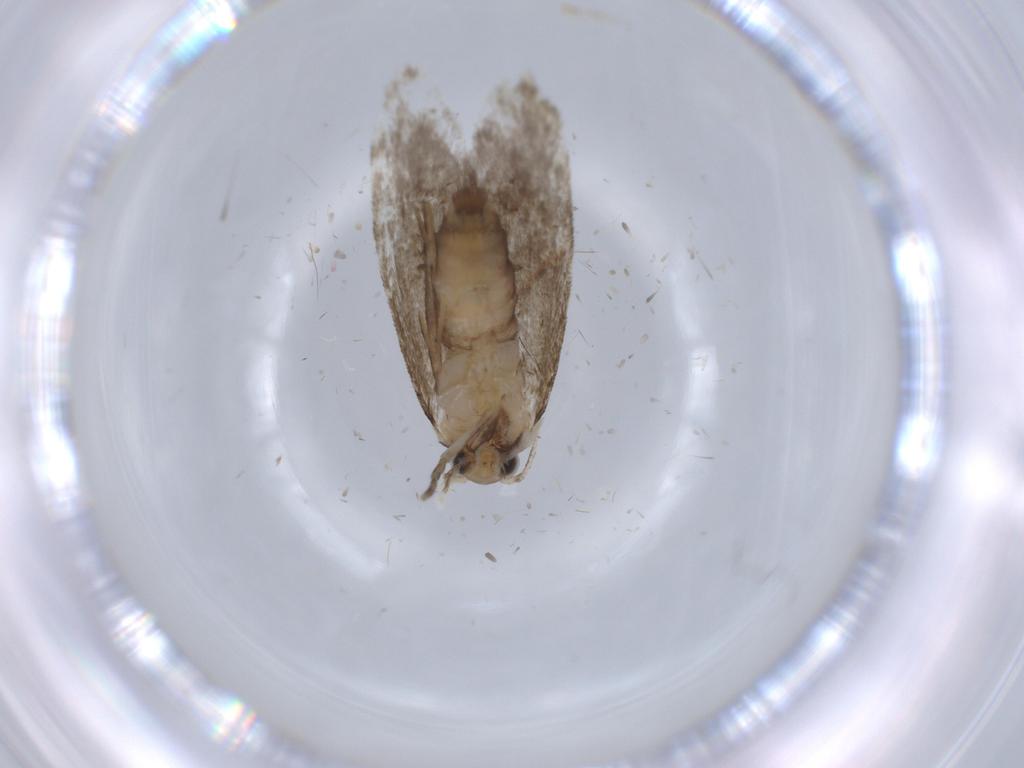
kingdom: Animalia
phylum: Arthropoda
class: Insecta
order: Lepidoptera
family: Tineidae
